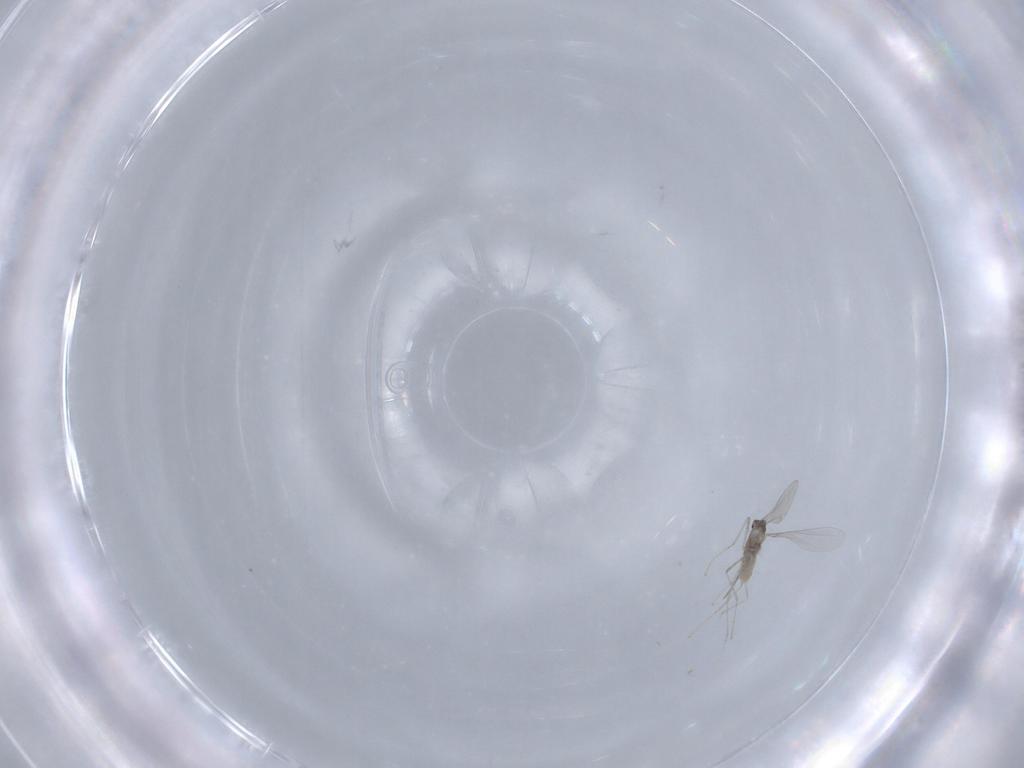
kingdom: Animalia
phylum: Arthropoda
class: Insecta
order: Diptera
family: Cecidomyiidae
